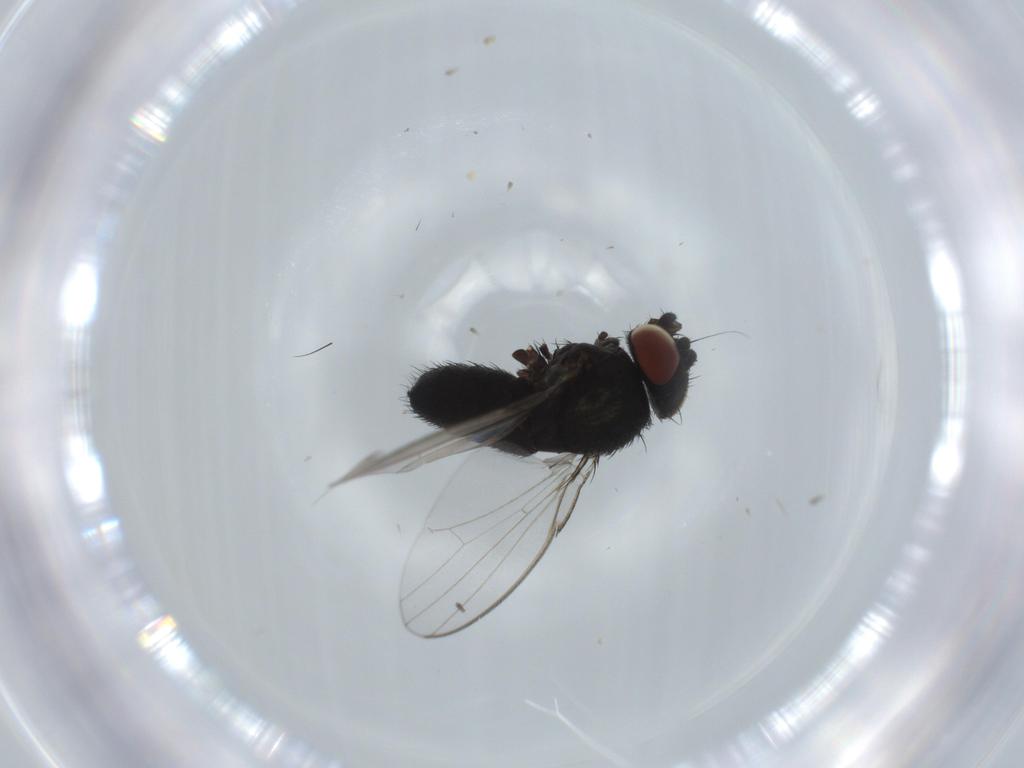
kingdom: Animalia
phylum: Arthropoda
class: Insecta
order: Diptera
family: Milichiidae
